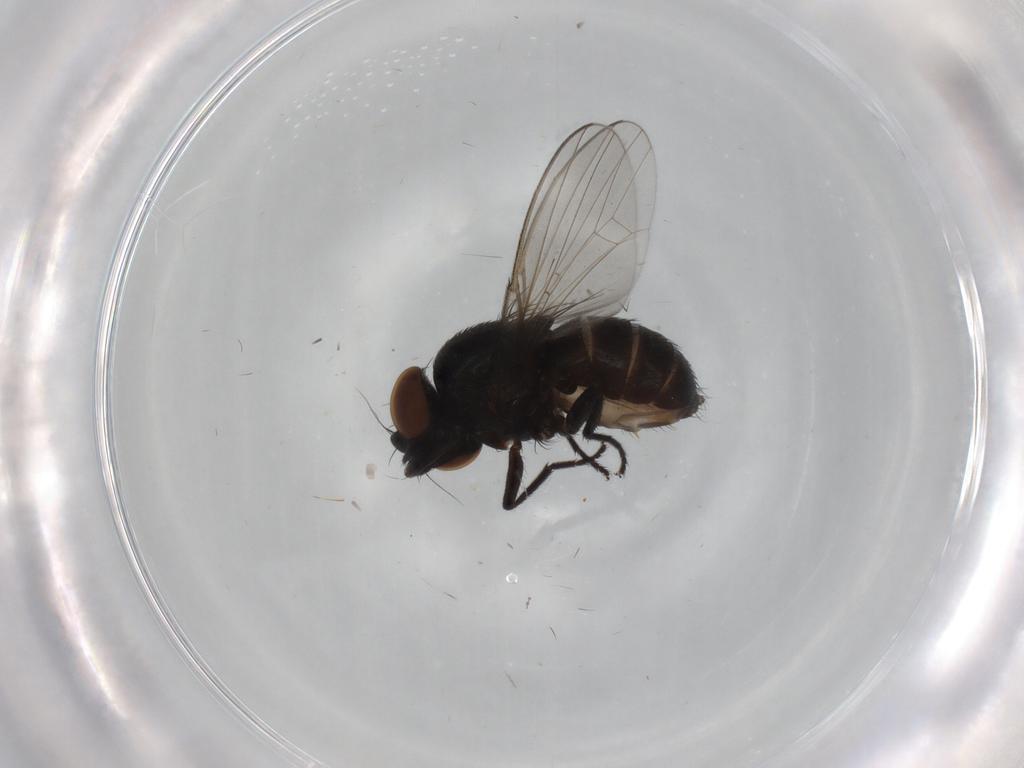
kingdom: Animalia
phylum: Arthropoda
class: Insecta
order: Diptera
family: Milichiidae
